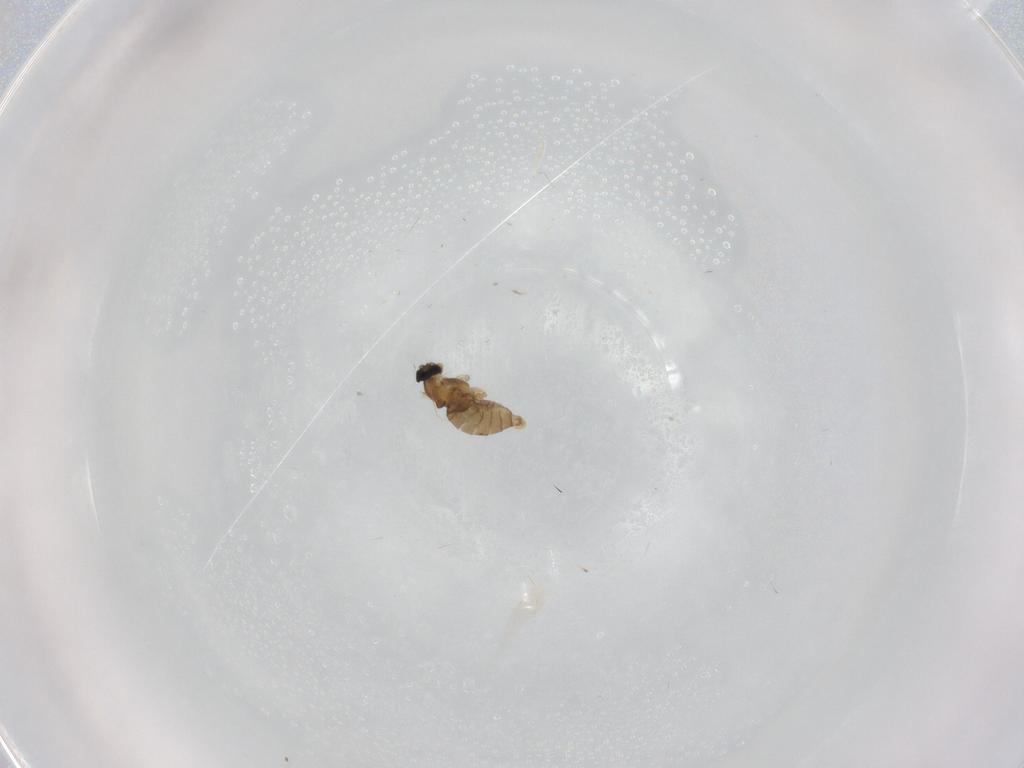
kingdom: Animalia
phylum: Arthropoda
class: Insecta
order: Diptera
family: Cecidomyiidae
